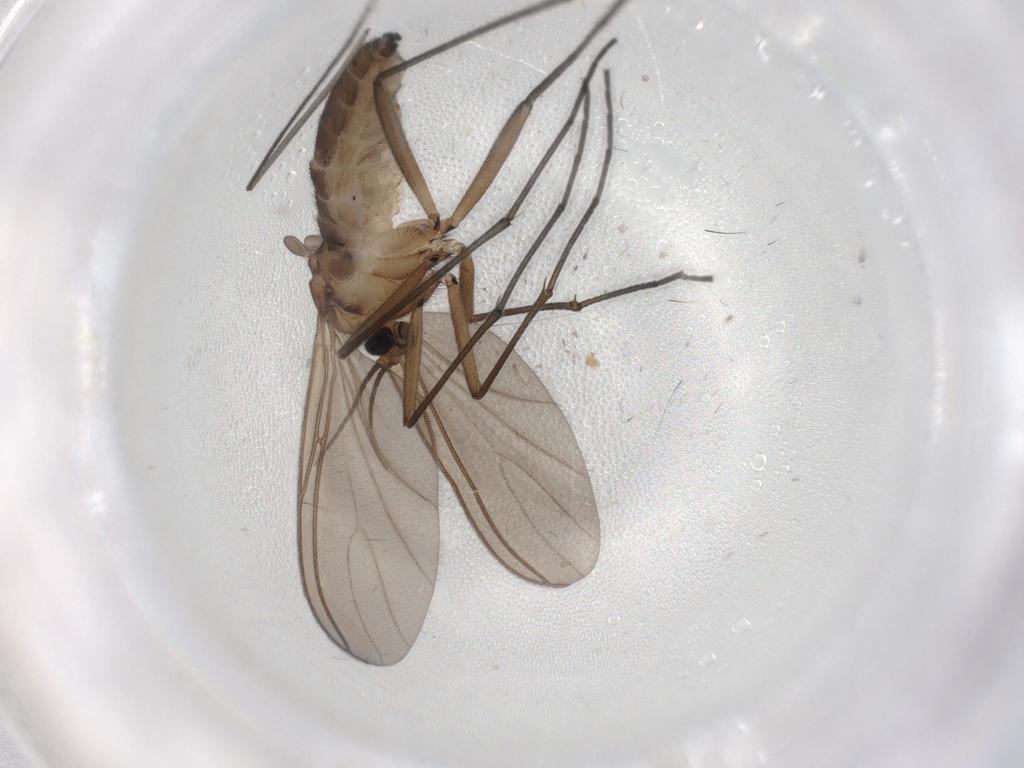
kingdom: Animalia
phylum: Arthropoda
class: Insecta
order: Diptera
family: Limoniidae
